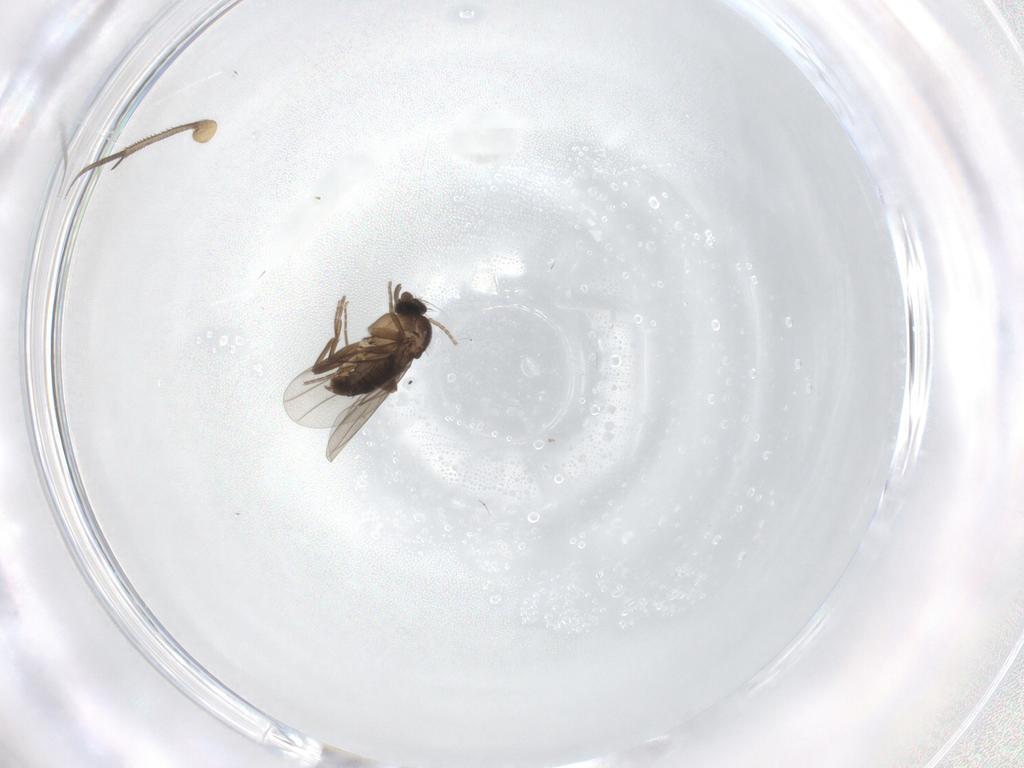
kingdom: Animalia
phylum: Arthropoda
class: Insecta
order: Diptera
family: Mycetophilidae
